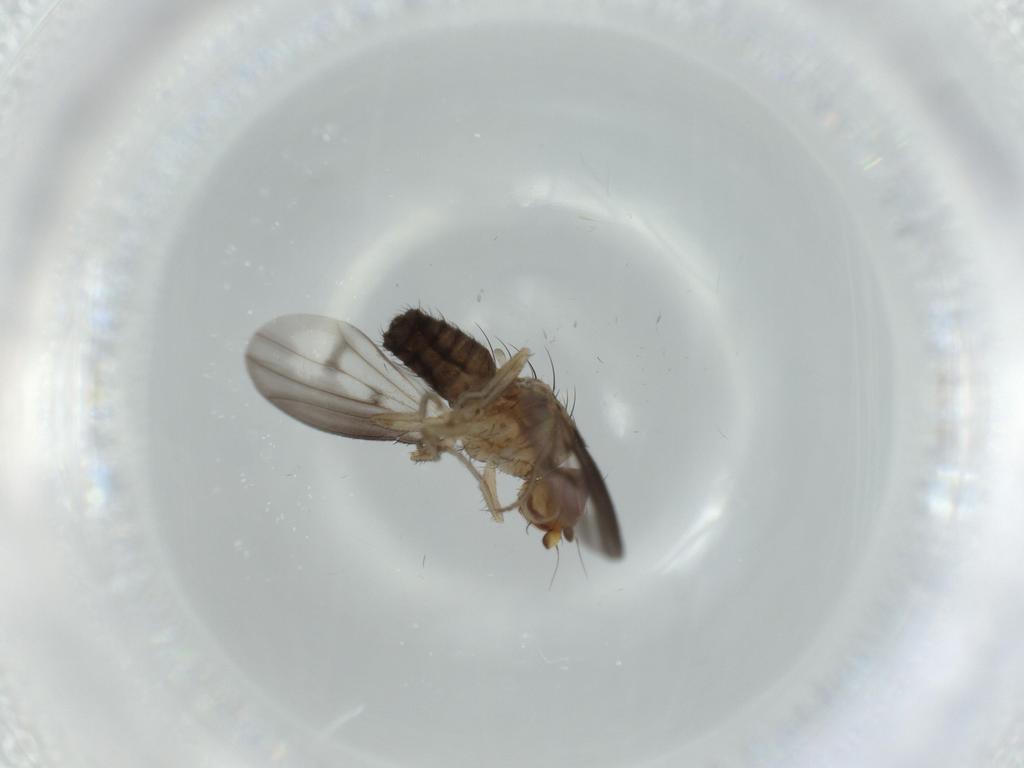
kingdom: Animalia
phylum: Arthropoda
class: Insecta
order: Diptera
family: Heleomyzidae
